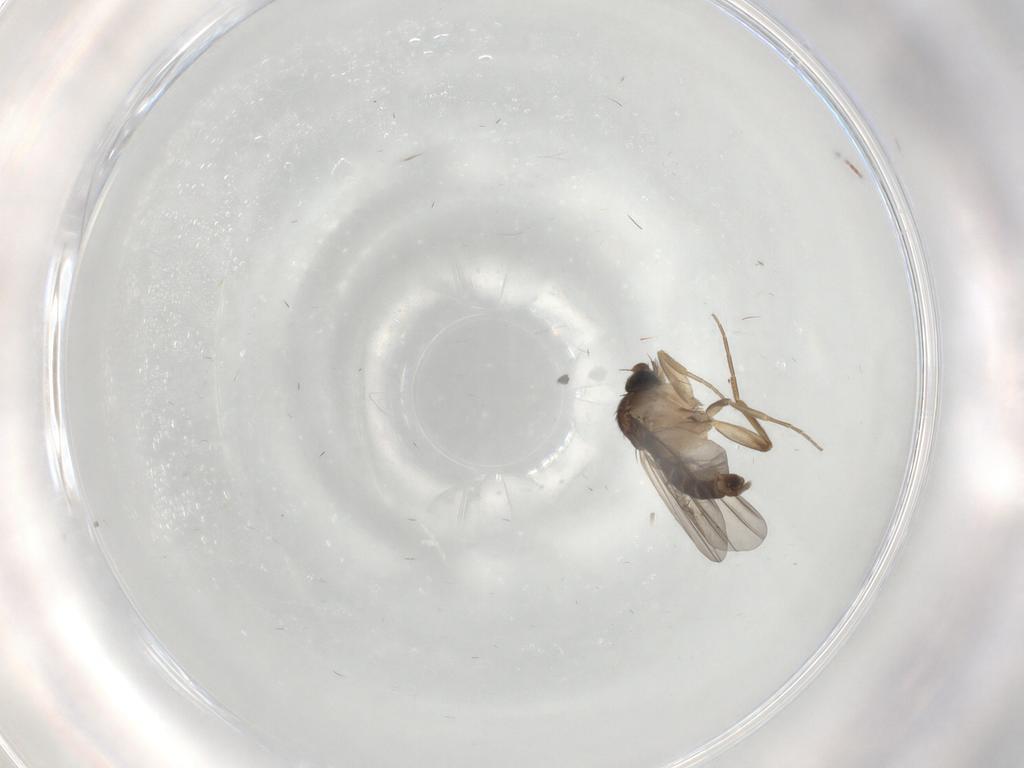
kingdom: Animalia
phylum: Arthropoda
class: Insecta
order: Diptera
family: Phoridae
